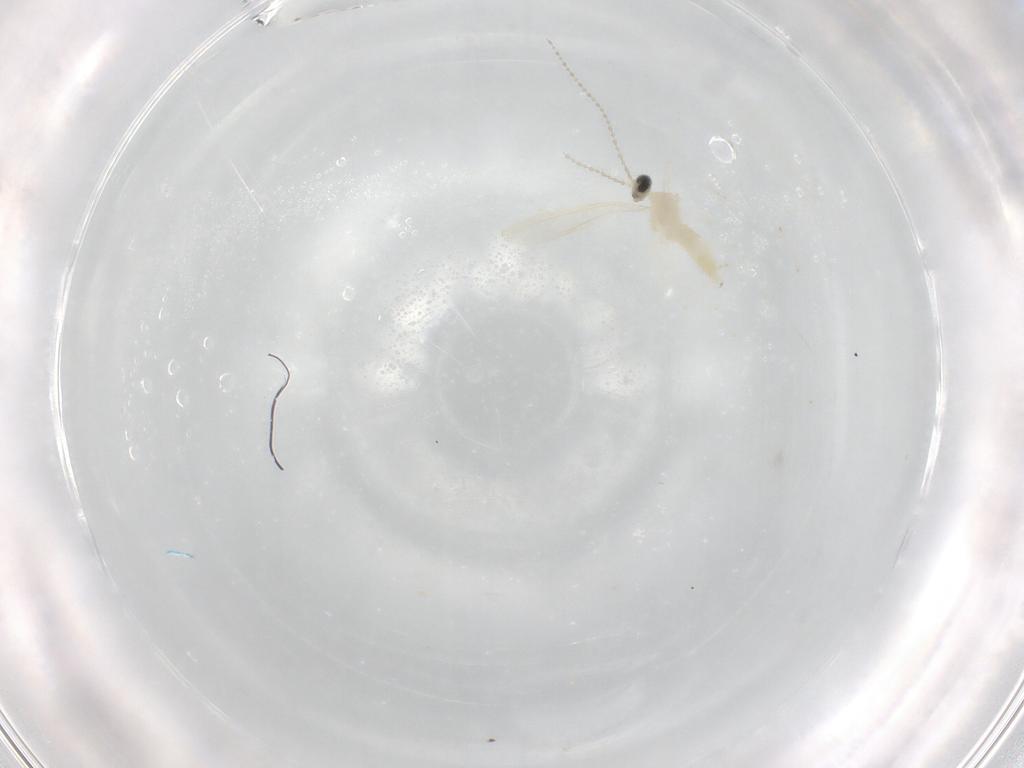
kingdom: Animalia
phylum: Arthropoda
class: Insecta
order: Diptera
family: Cecidomyiidae
